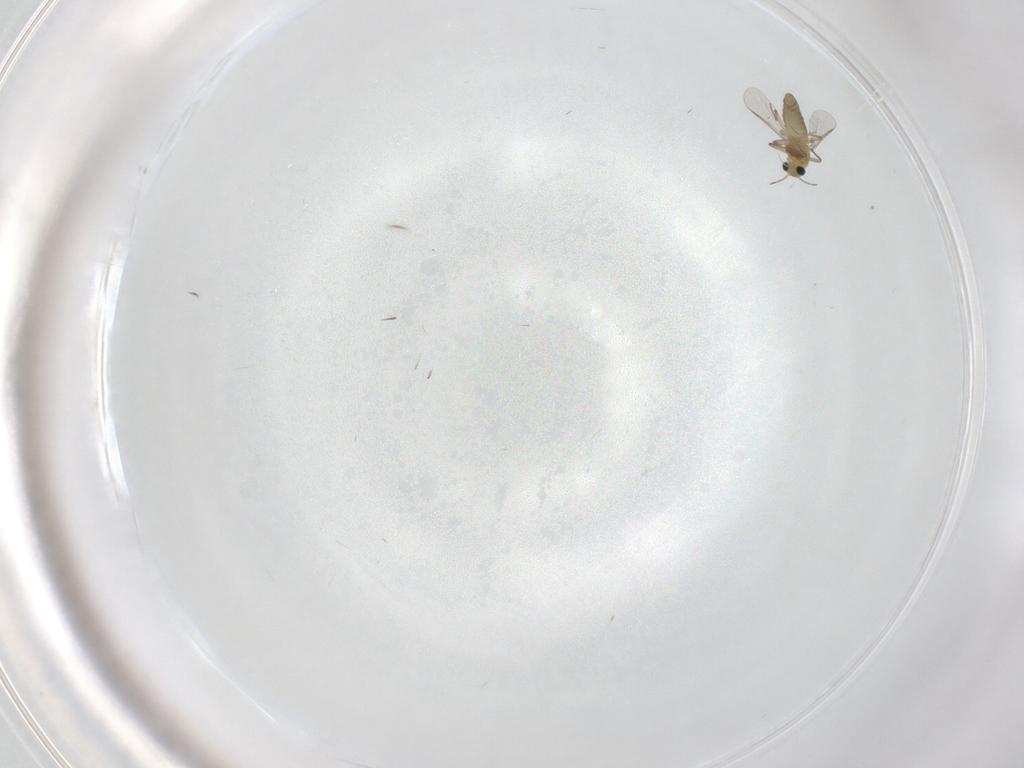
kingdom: Animalia
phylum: Arthropoda
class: Insecta
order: Diptera
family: Chironomidae
